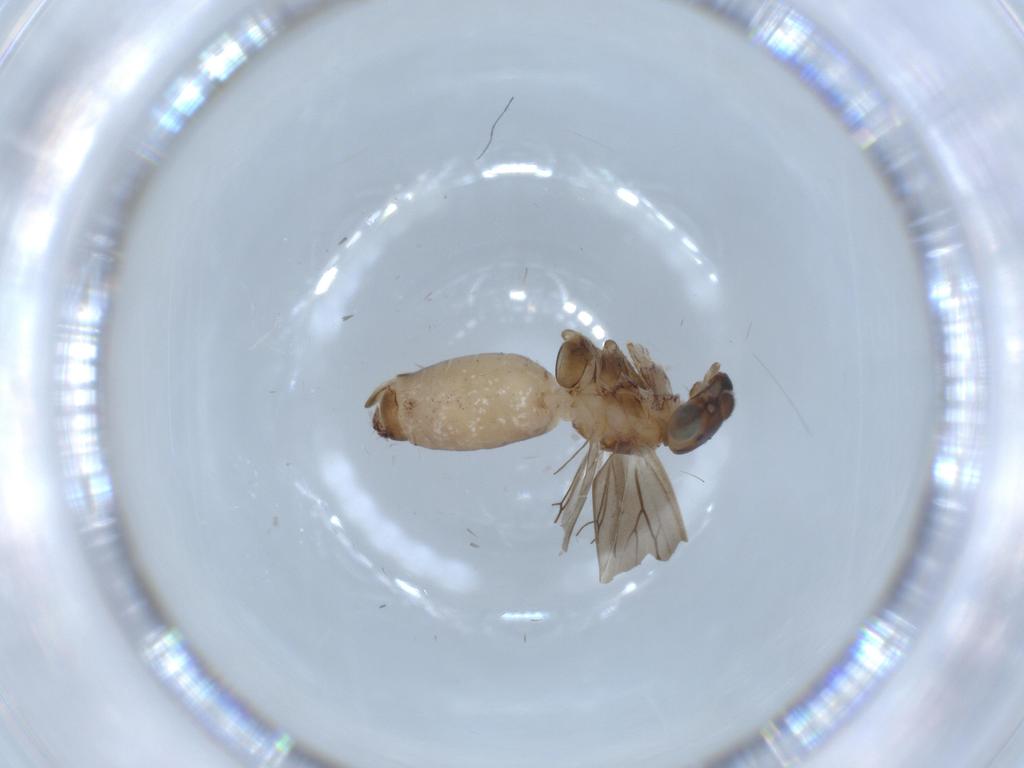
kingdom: Animalia
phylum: Arthropoda
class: Insecta
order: Psocodea
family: Lepidopsocidae
